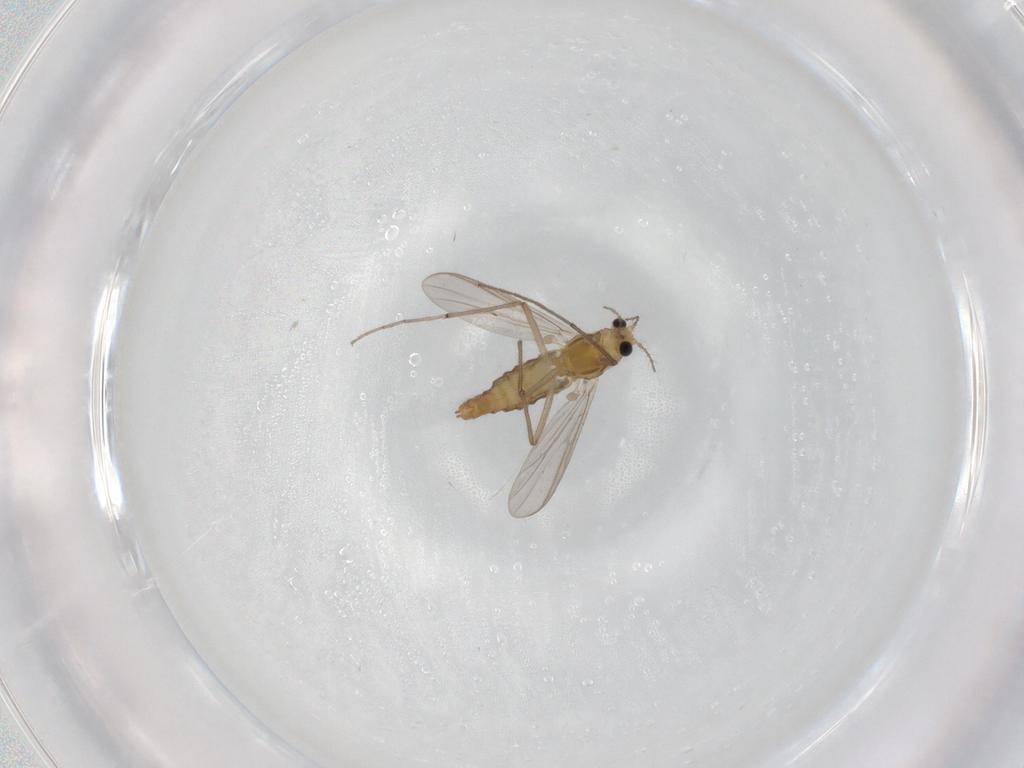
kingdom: Animalia
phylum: Arthropoda
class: Insecta
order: Diptera
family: Chironomidae
